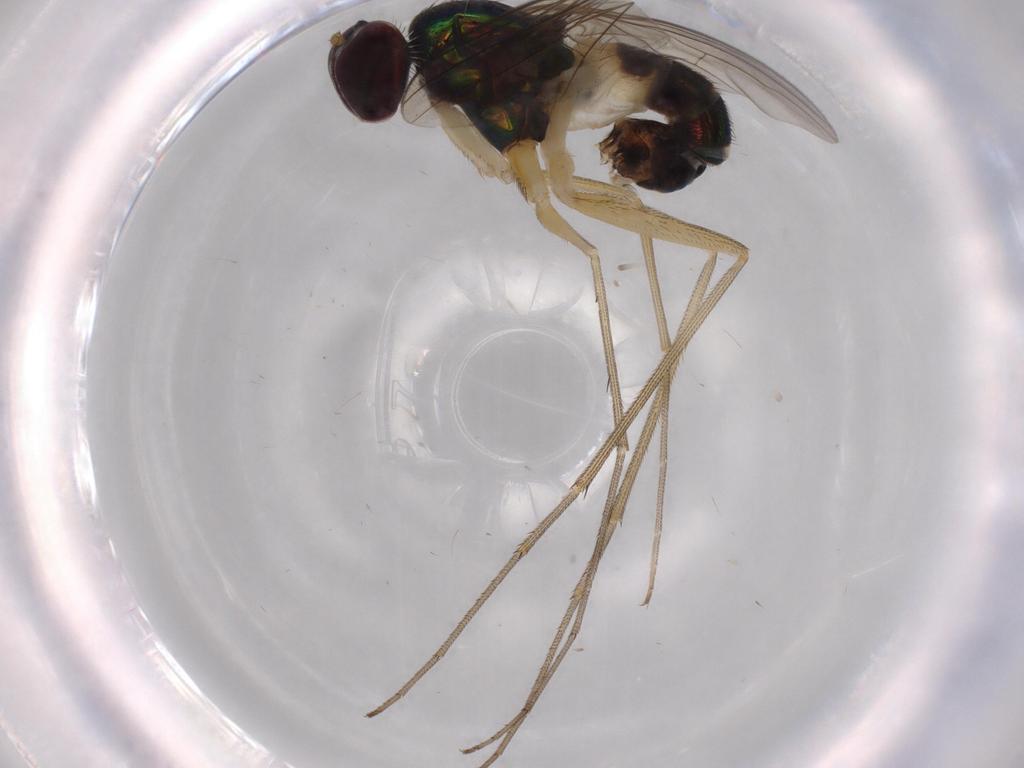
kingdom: Animalia
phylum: Arthropoda
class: Insecta
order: Diptera
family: Dolichopodidae
